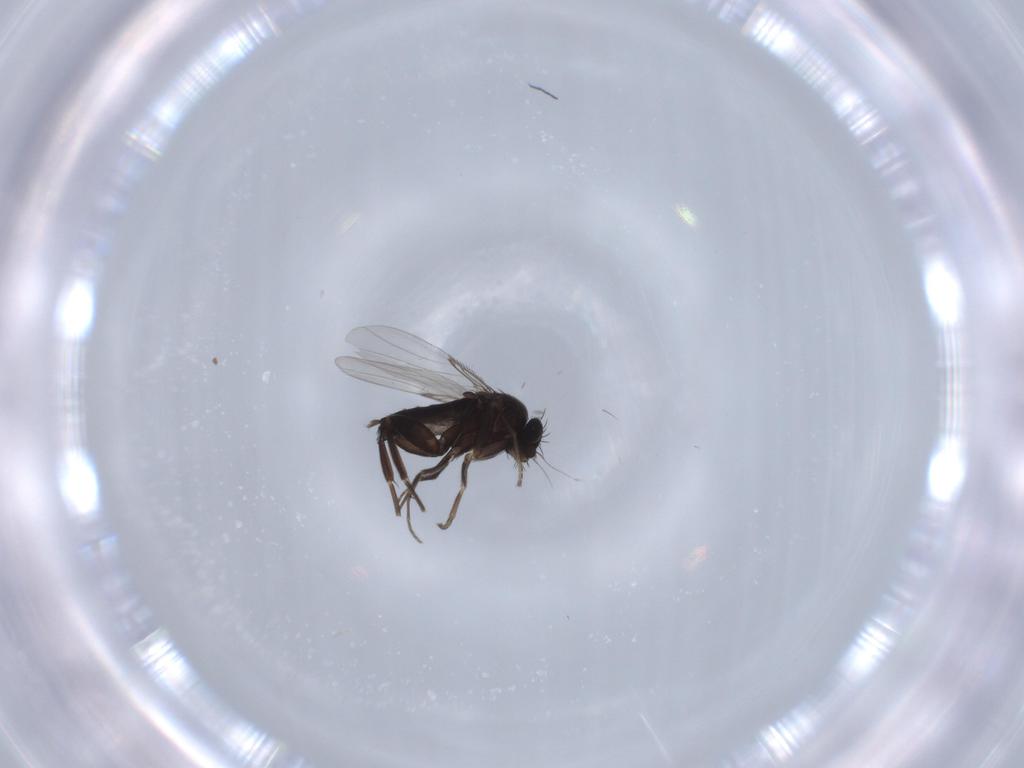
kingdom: Animalia
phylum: Arthropoda
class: Insecta
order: Diptera
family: Phoridae
